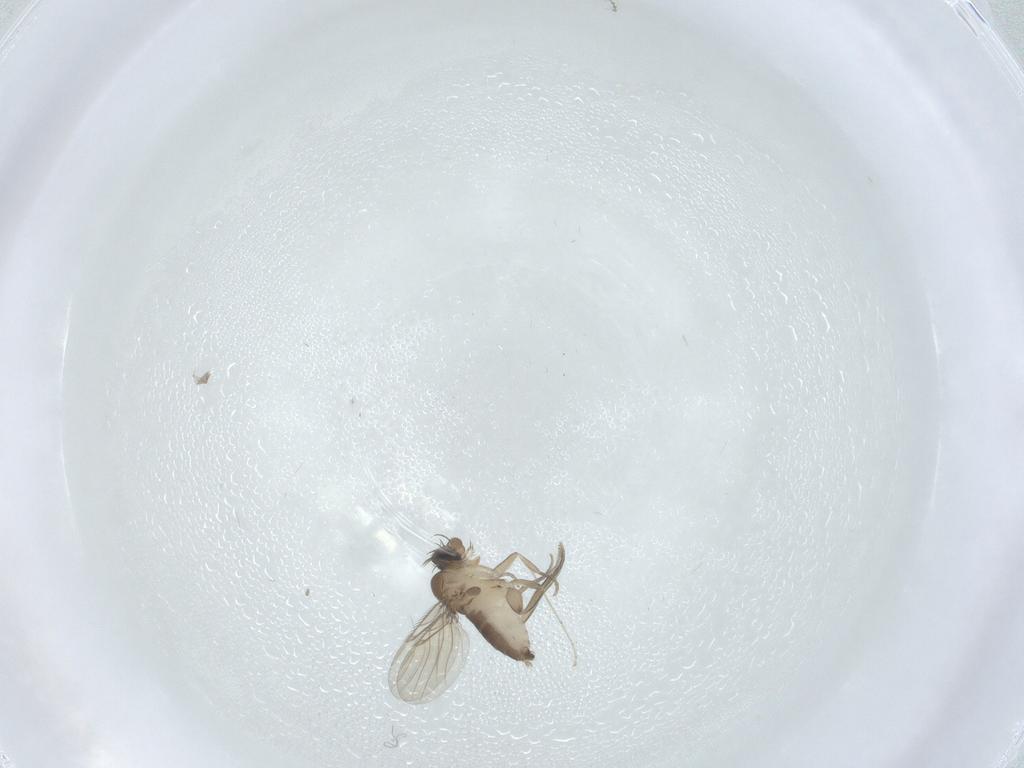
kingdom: Animalia
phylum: Arthropoda
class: Insecta
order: Diptera
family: Phoridae
